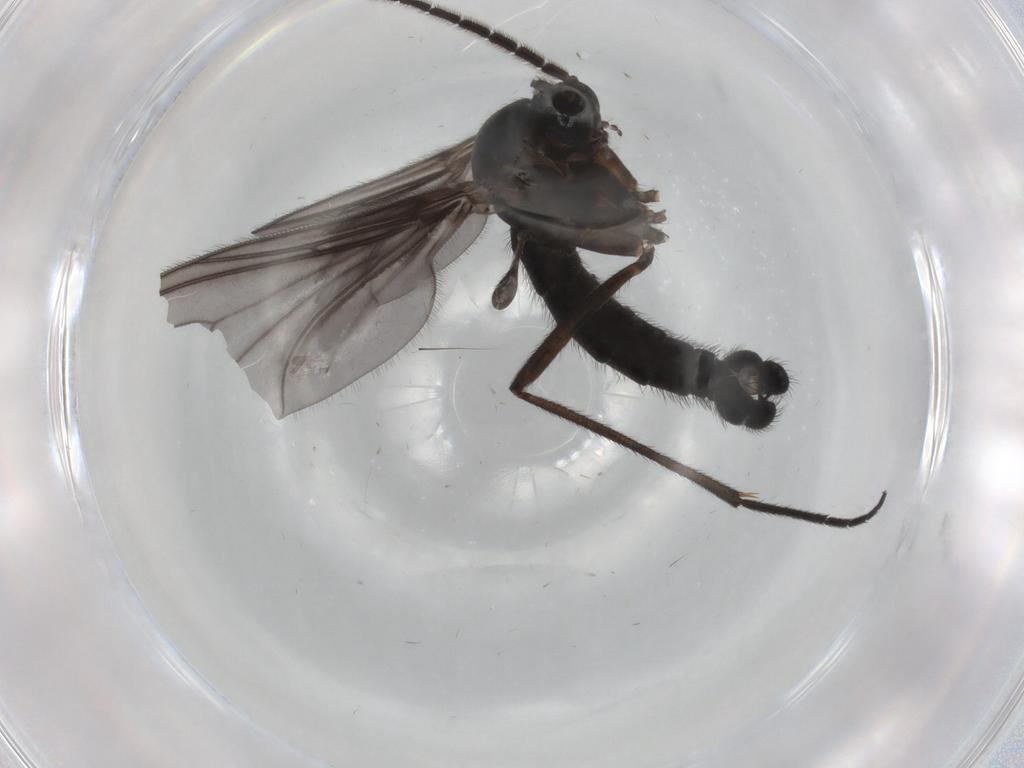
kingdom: Animalia
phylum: Arthropoda
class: Insecta
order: Diptera
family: Sciaridae
